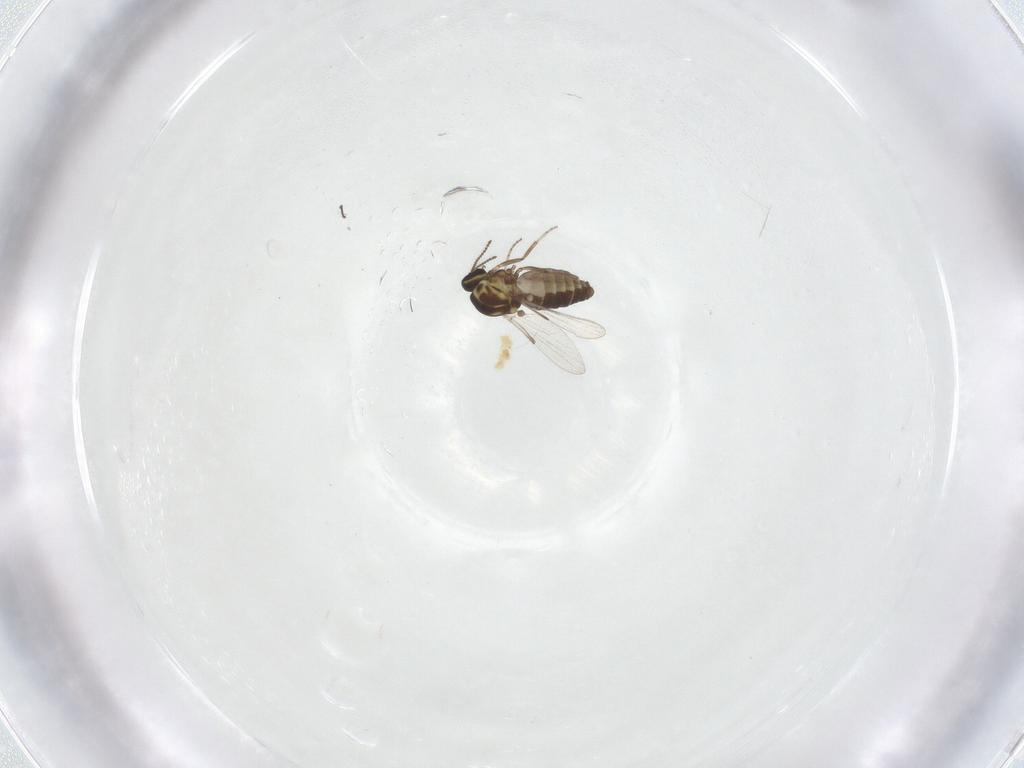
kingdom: Animalia
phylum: Arthropoda
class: Insecta
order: Diptera
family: Ceratopogonidae
